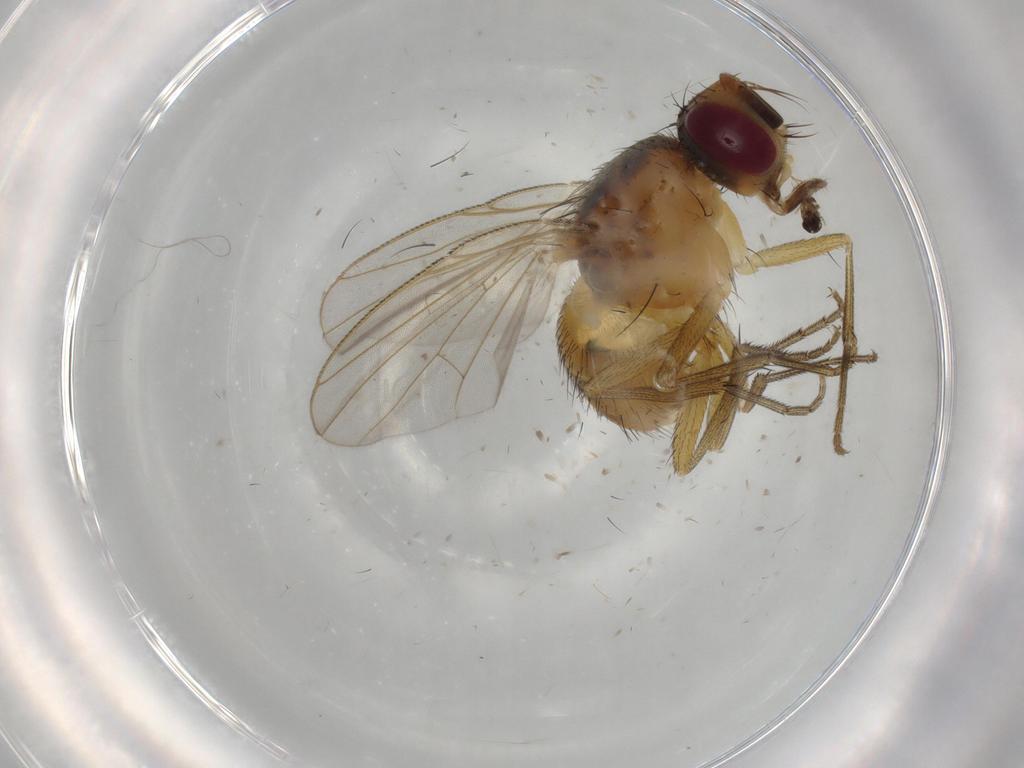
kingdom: Animalia
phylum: Arthropoda
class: Insecta
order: Diptera
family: Muscidae
